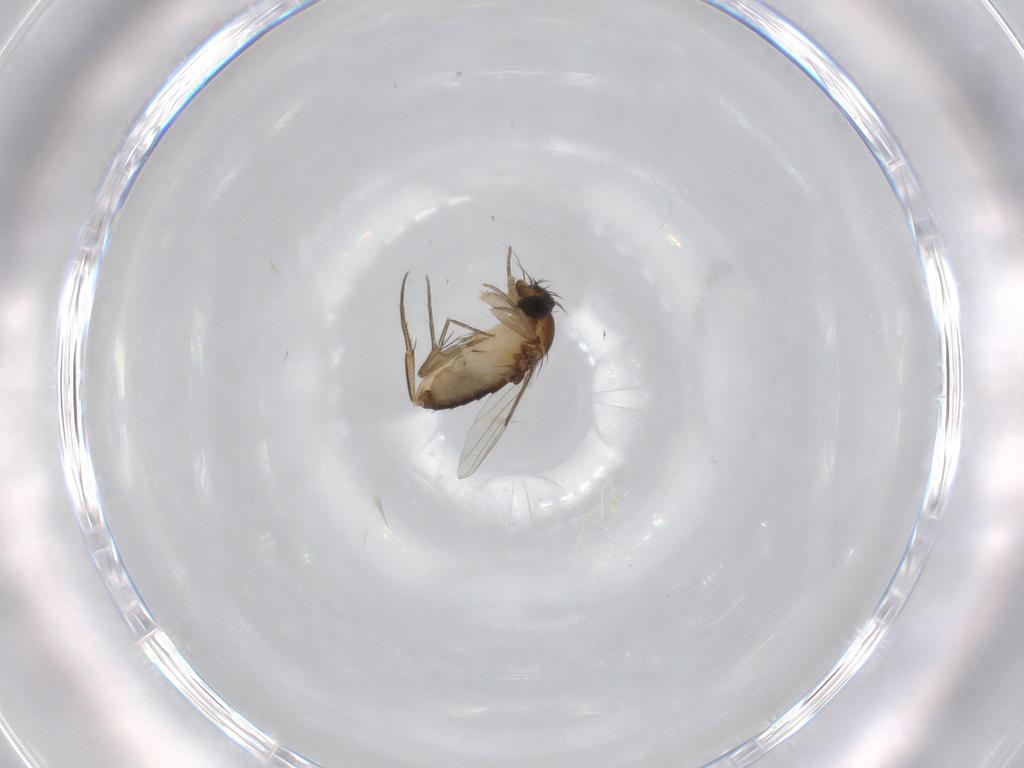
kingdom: Animalia
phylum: Arthropoda
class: Insecta
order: Diptera
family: Phoridae
